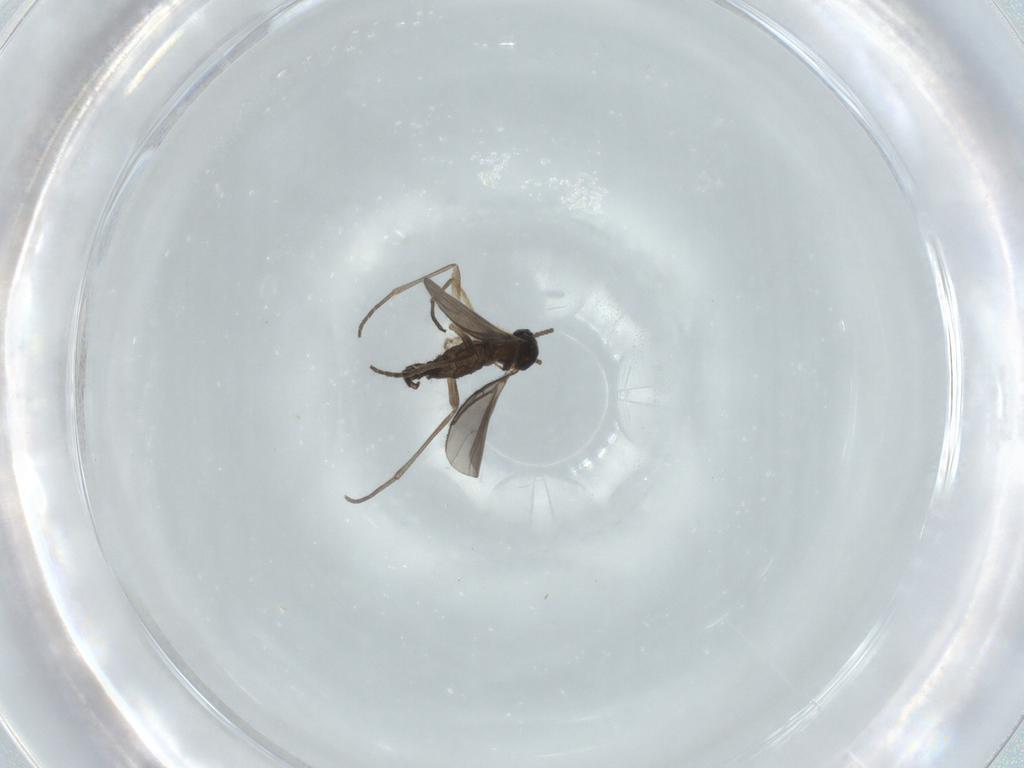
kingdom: Animalia
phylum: Arthropoda
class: Insecta
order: Diptera
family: Sciaridae
